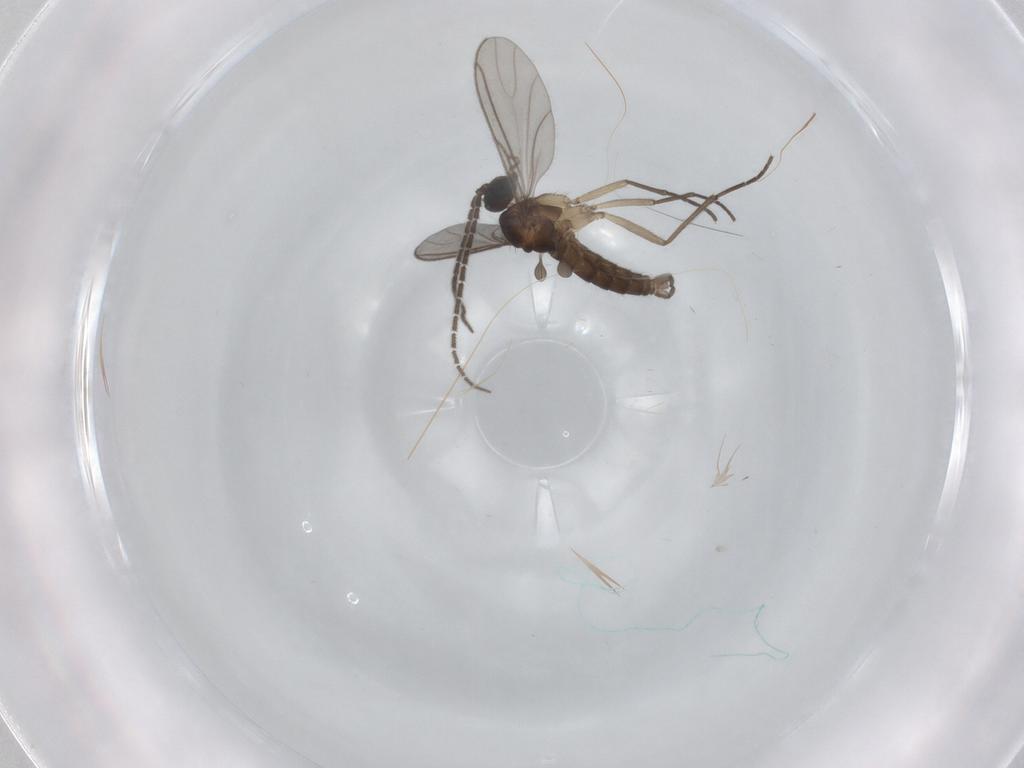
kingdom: Animalia
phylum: Arthropoda
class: Insecta
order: Diptera
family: Sciaridae
